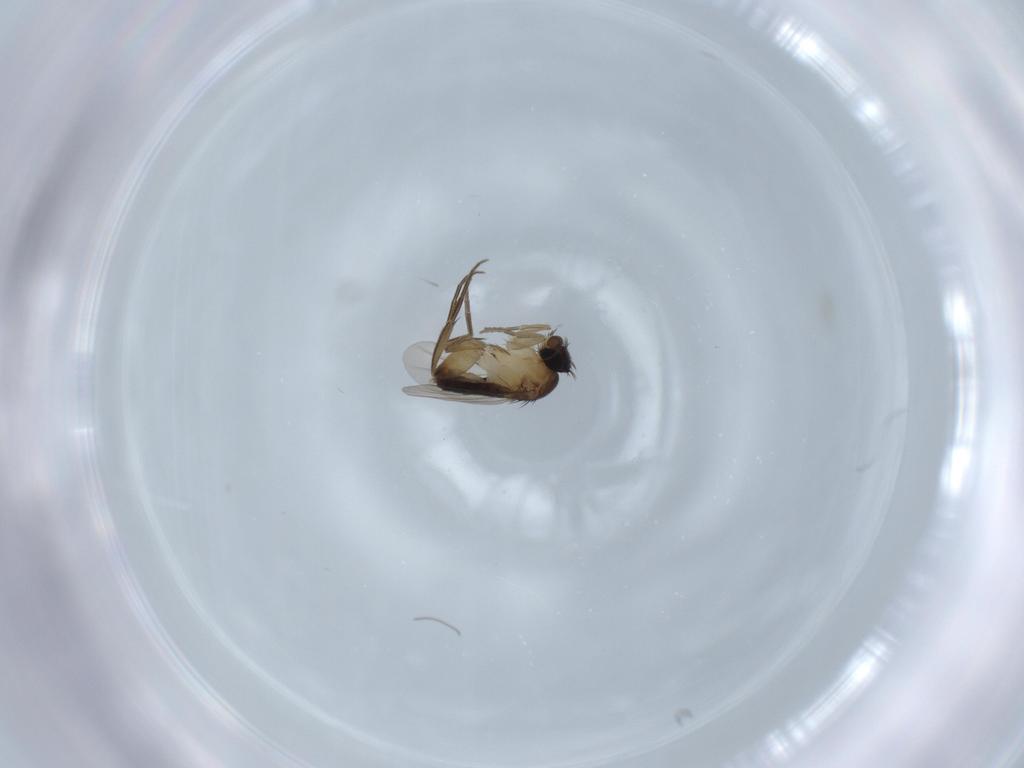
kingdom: Animalia
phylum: Arthropoda
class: Insecta
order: Diptera
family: Phoridae
